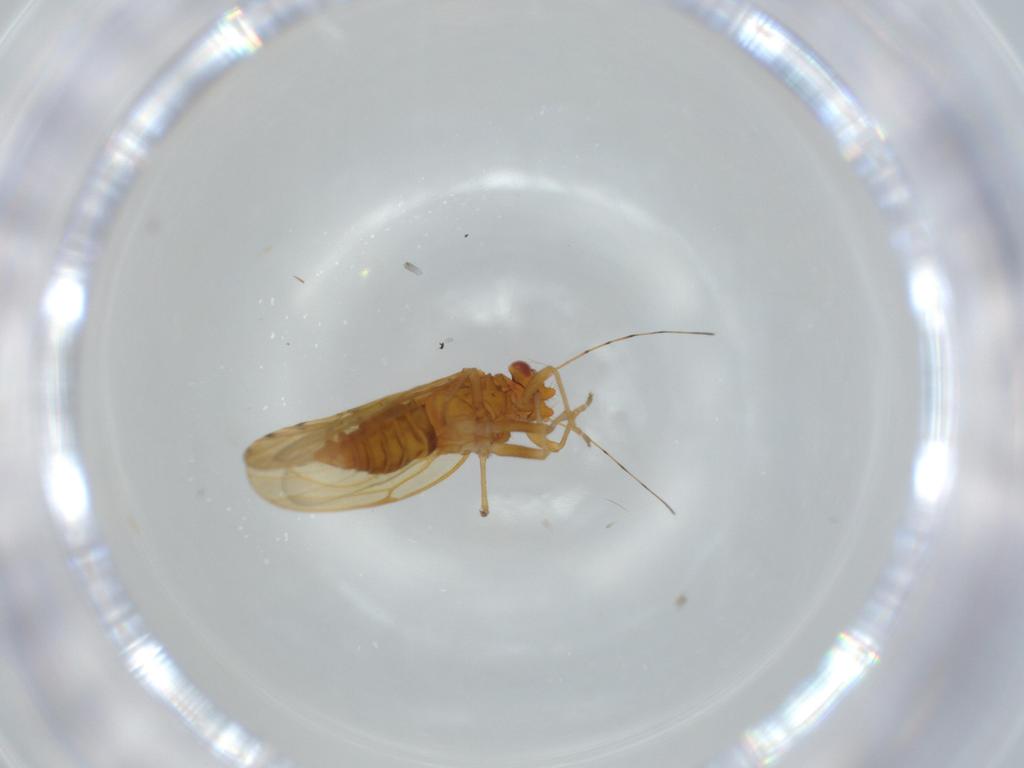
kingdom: Animalia
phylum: Arthropoda
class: Insecta
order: Hemiptera
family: Psylloidea_incertae_sedis
